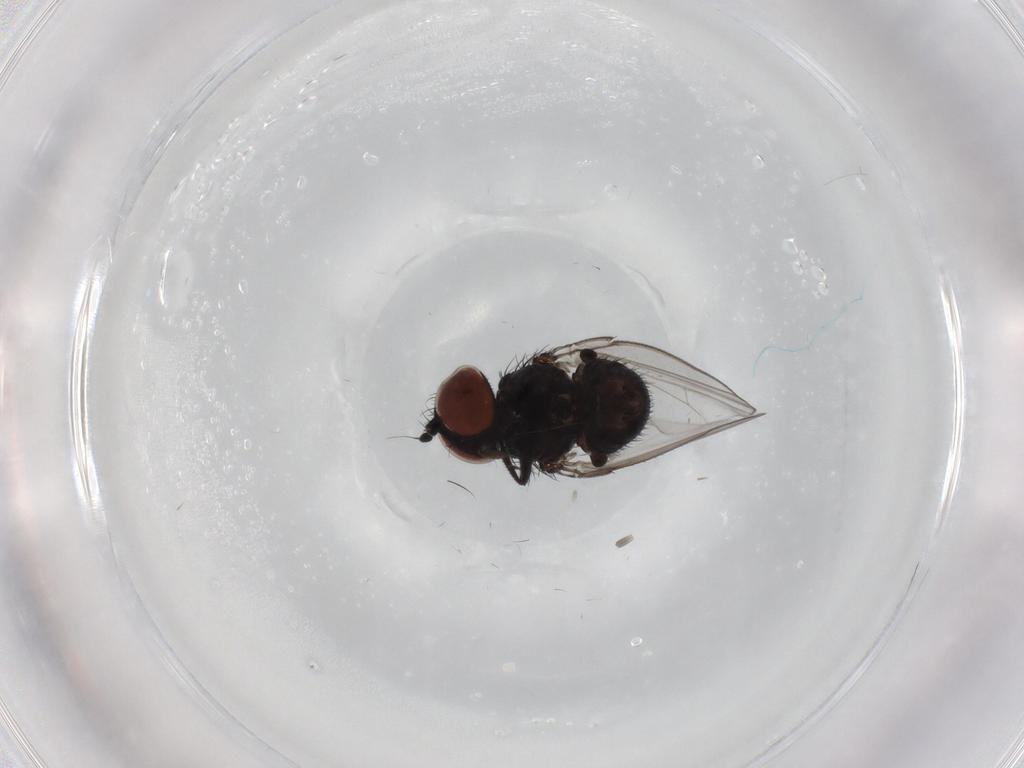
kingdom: Animalia
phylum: Arthropoda
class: Insecta
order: Diptera
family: Milichiidae
